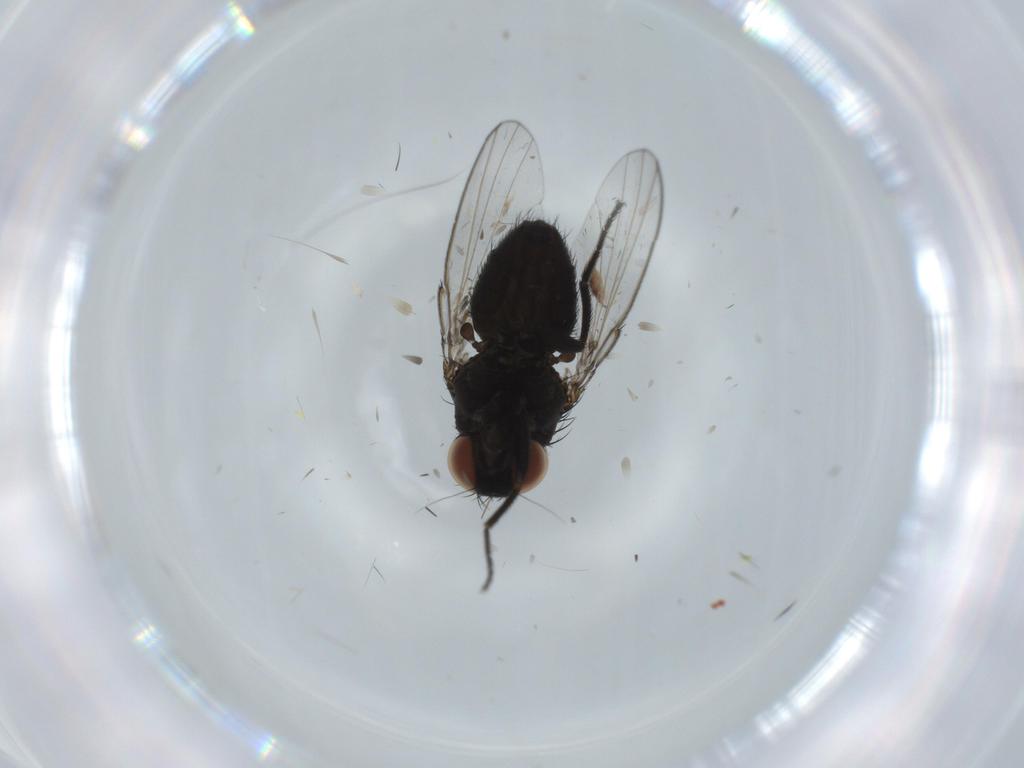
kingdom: Animalia
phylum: Arthropoda
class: Insecta
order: Diptera
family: Milichiidae
